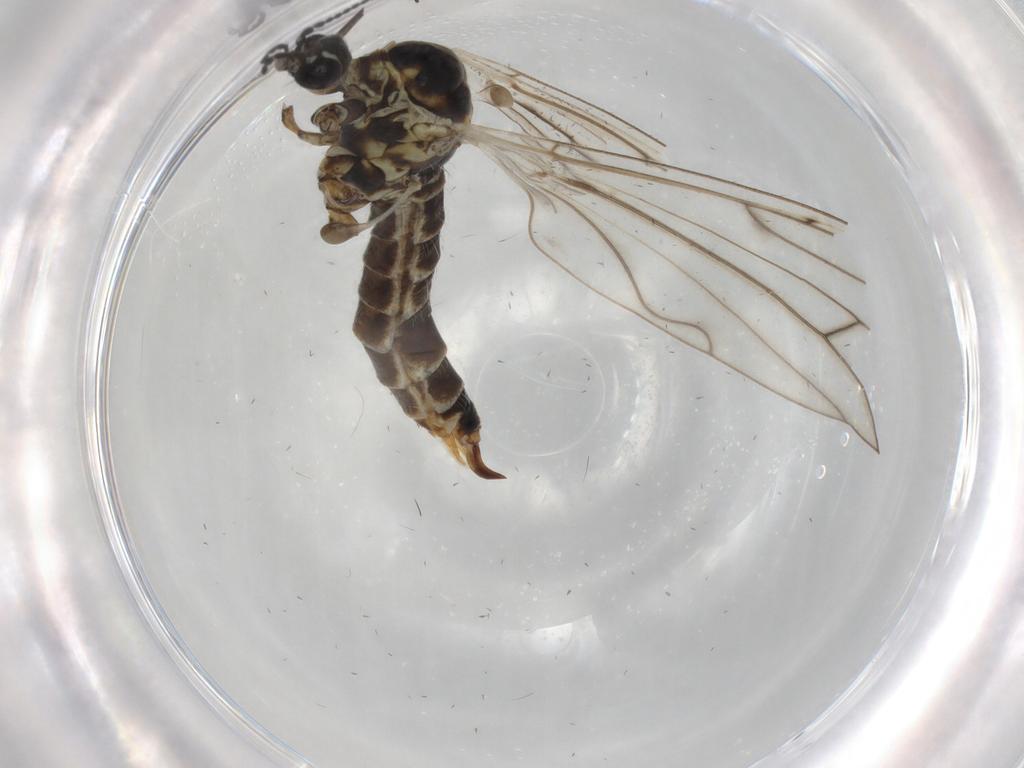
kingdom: Animalia
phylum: Arthropoda
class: Insecta
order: Diptera
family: Limoniidae
